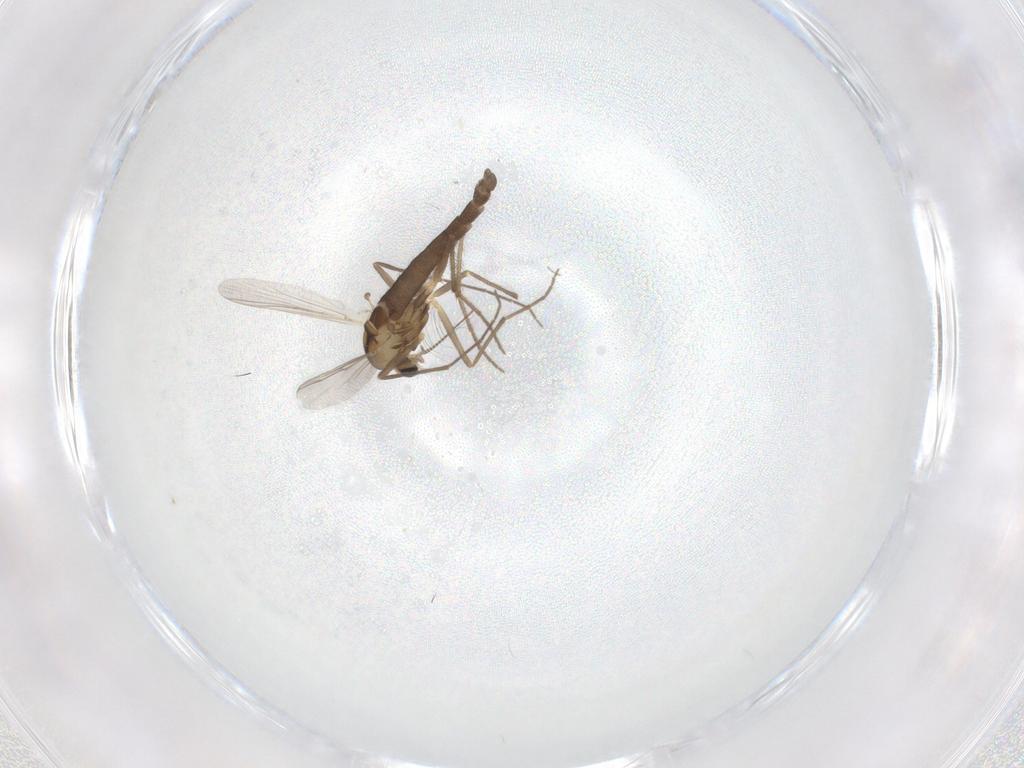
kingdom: Animalia
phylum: Arthropoda
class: Insecta
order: Diptera
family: Chironomidae
